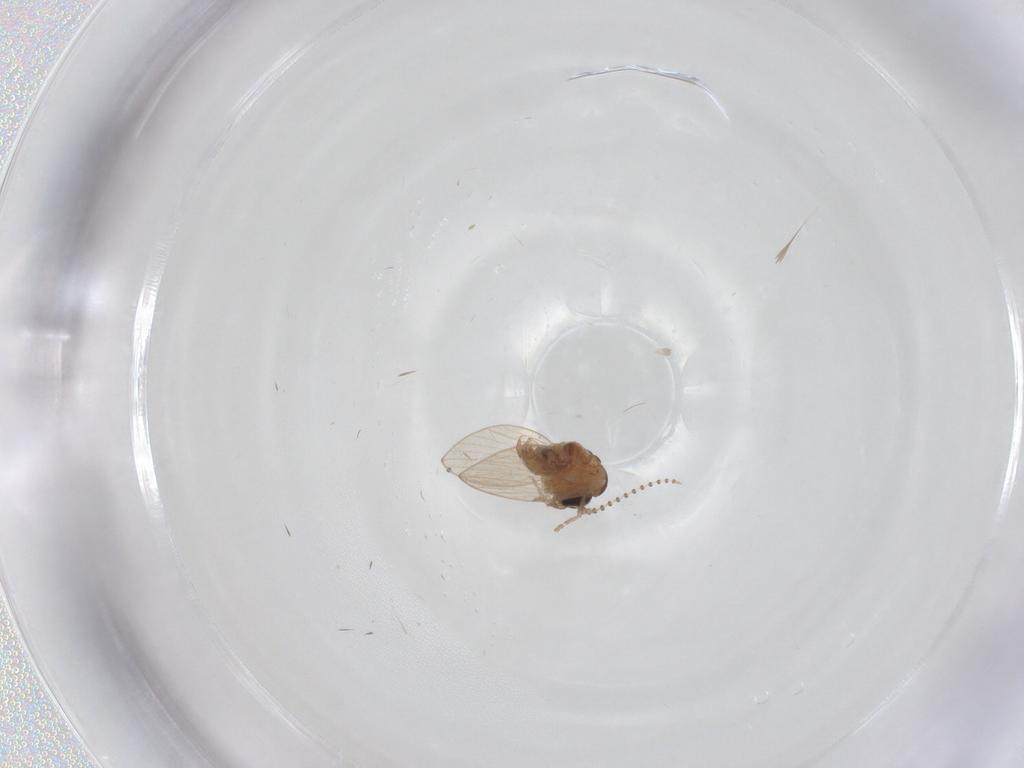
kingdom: Animalia
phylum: Arthropoda
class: Insecta
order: Diptera
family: Psychodidae
